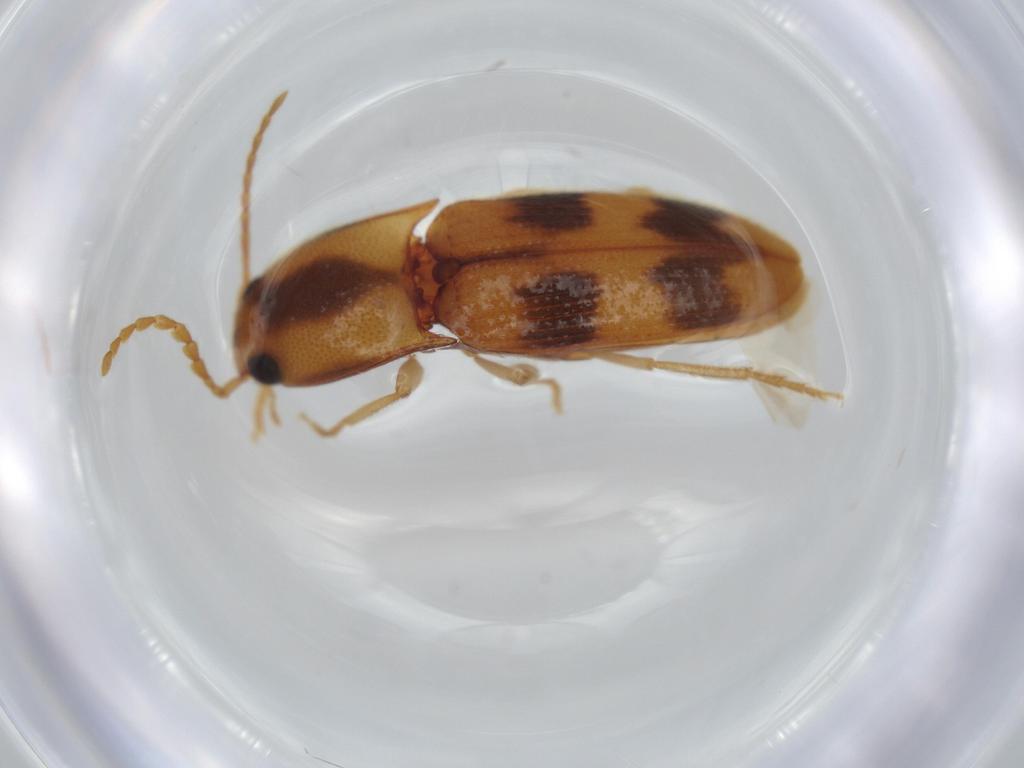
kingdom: Animalia
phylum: Arthropoda
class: Insecta
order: Coleoptera
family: Elateridae
